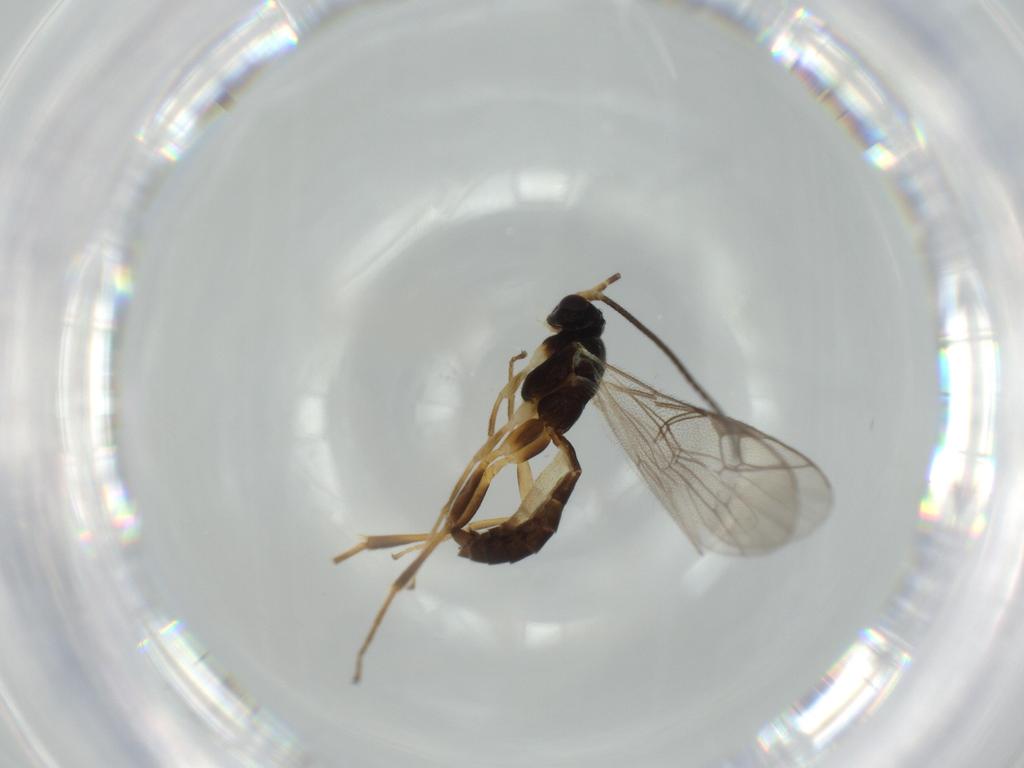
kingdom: Animalia
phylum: Arthropoda
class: Insecta
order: Hymenoptera
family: Ichneumonidae
